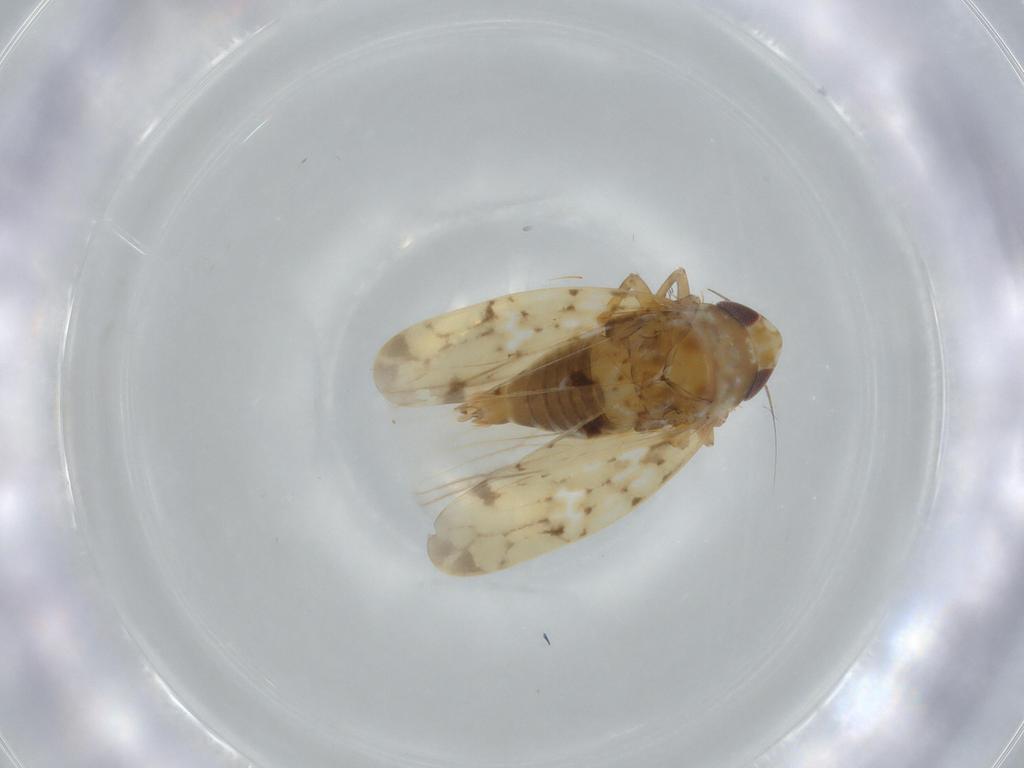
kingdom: Animalia
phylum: Arthropoda
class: Insecta
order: Hemiptera
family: Cicadellidae
